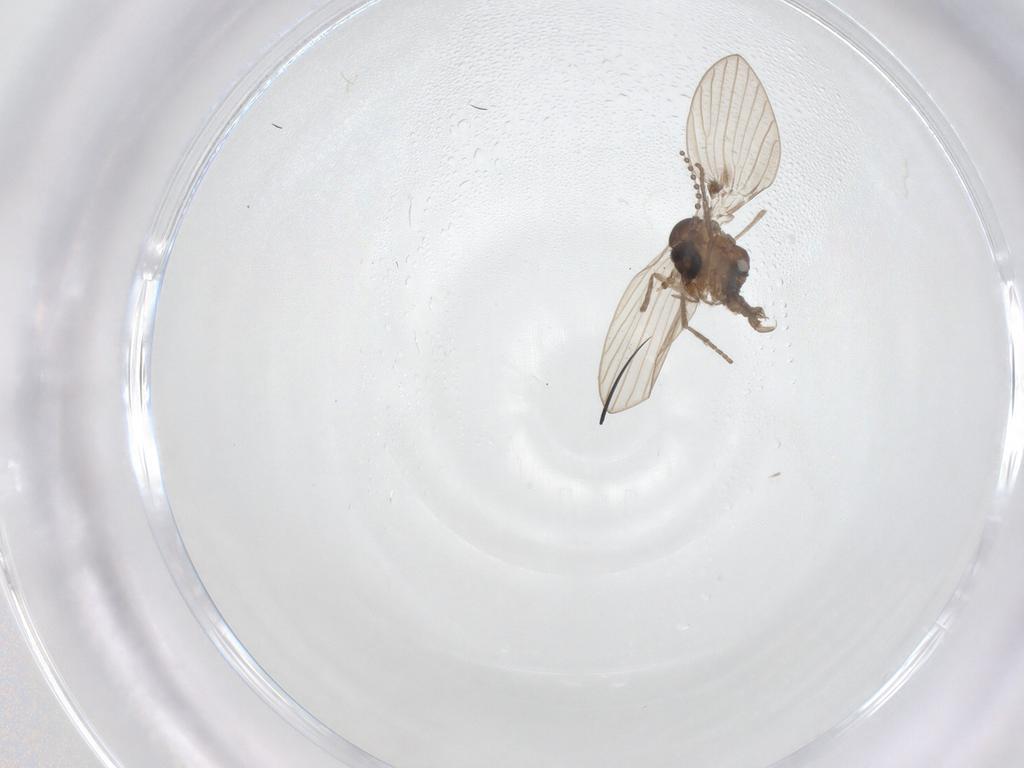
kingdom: Animalia
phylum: Arthropoda
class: Insecta
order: Diptera
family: Psychodidae
